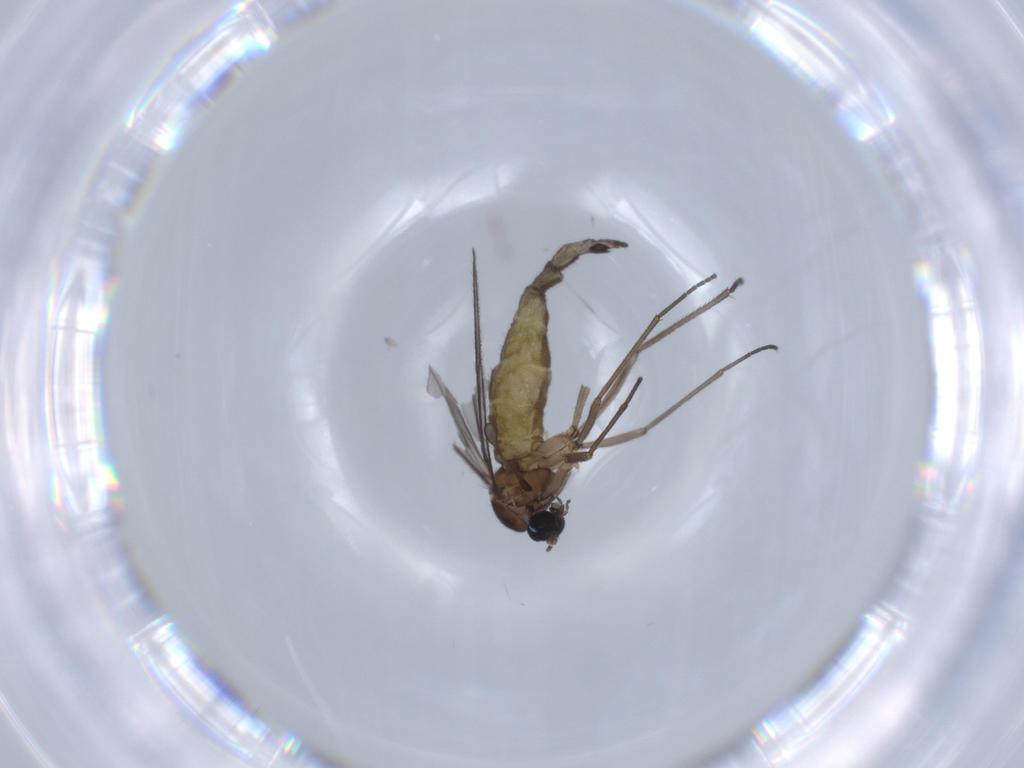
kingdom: Animalia
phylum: Arthropoda
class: Insecta
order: Diptera
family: Sciaridae
